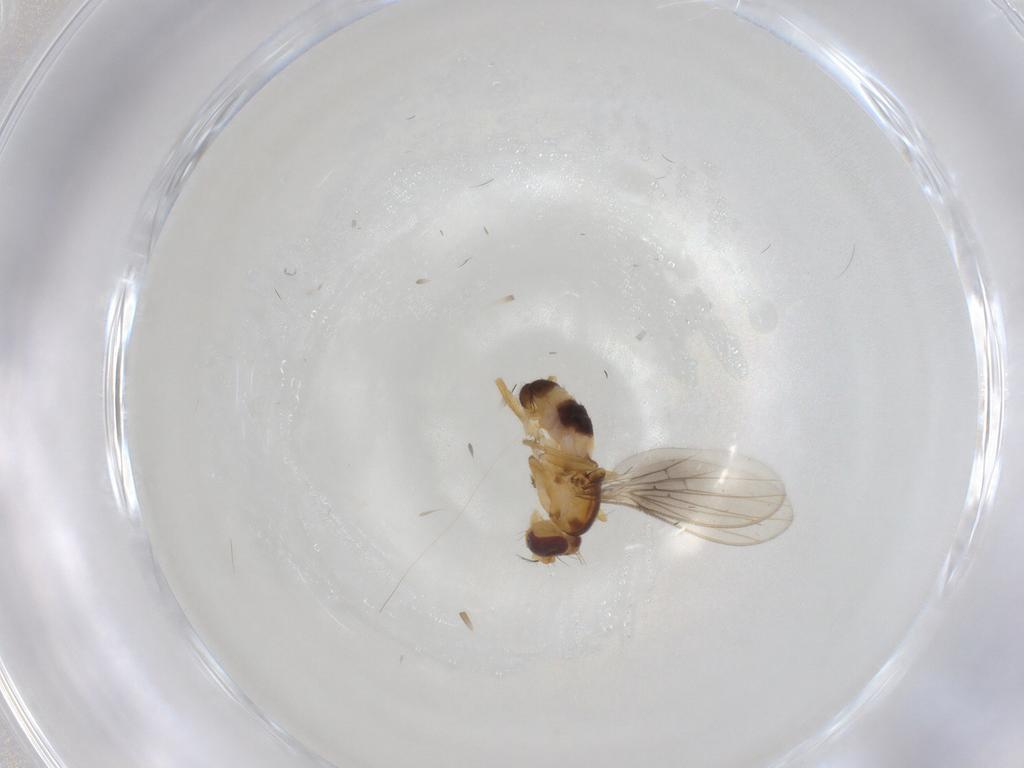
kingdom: Animalia
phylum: Arthropoda
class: Insecta
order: Diptera
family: Periscelididae
